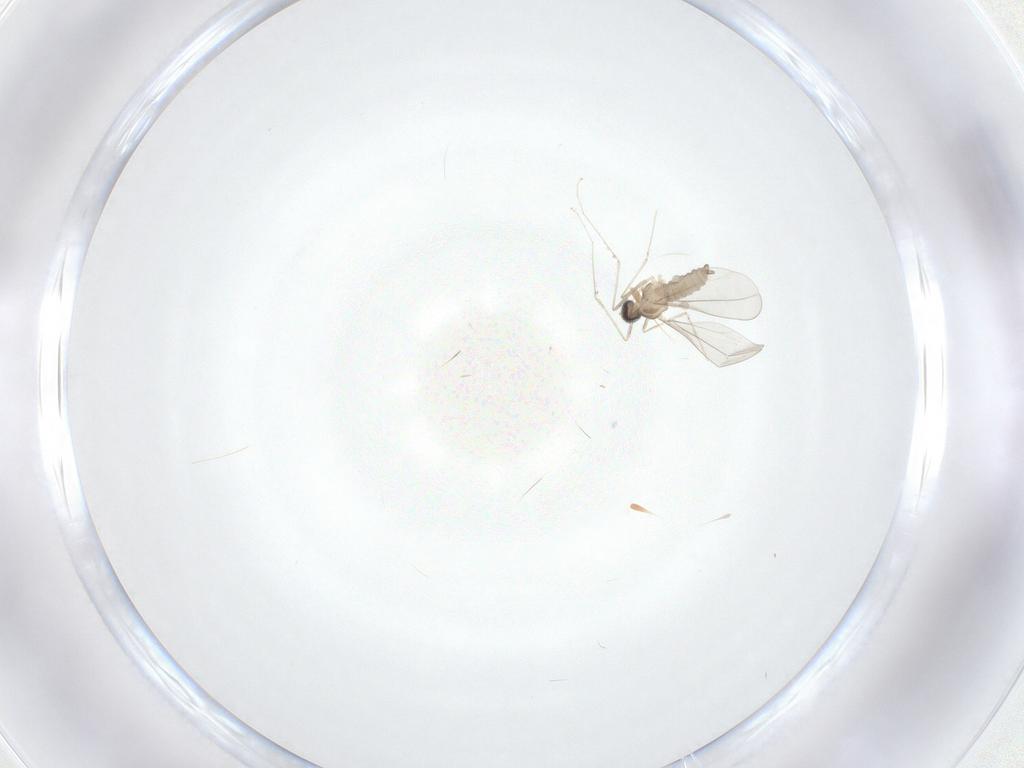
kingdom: Animalia
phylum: Arthropoda
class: Insecta
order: Diptera
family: Cecidomyiidae
